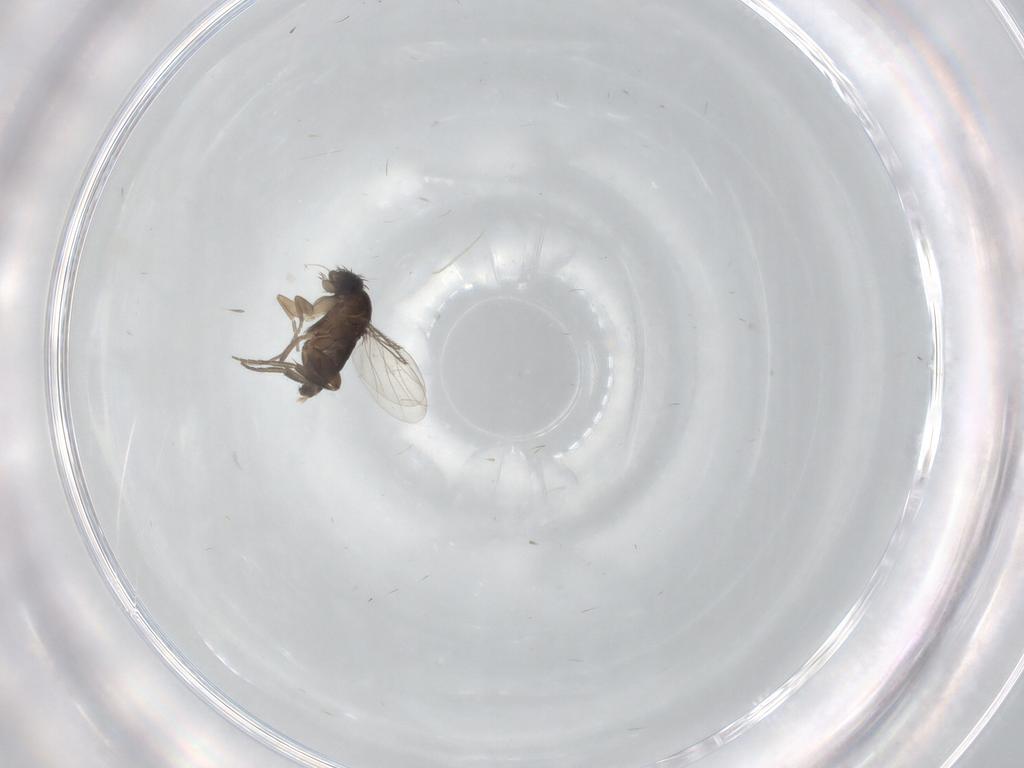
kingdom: Animalia
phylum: Arthropoda
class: Insecta
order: Diptera
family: Phoridae
